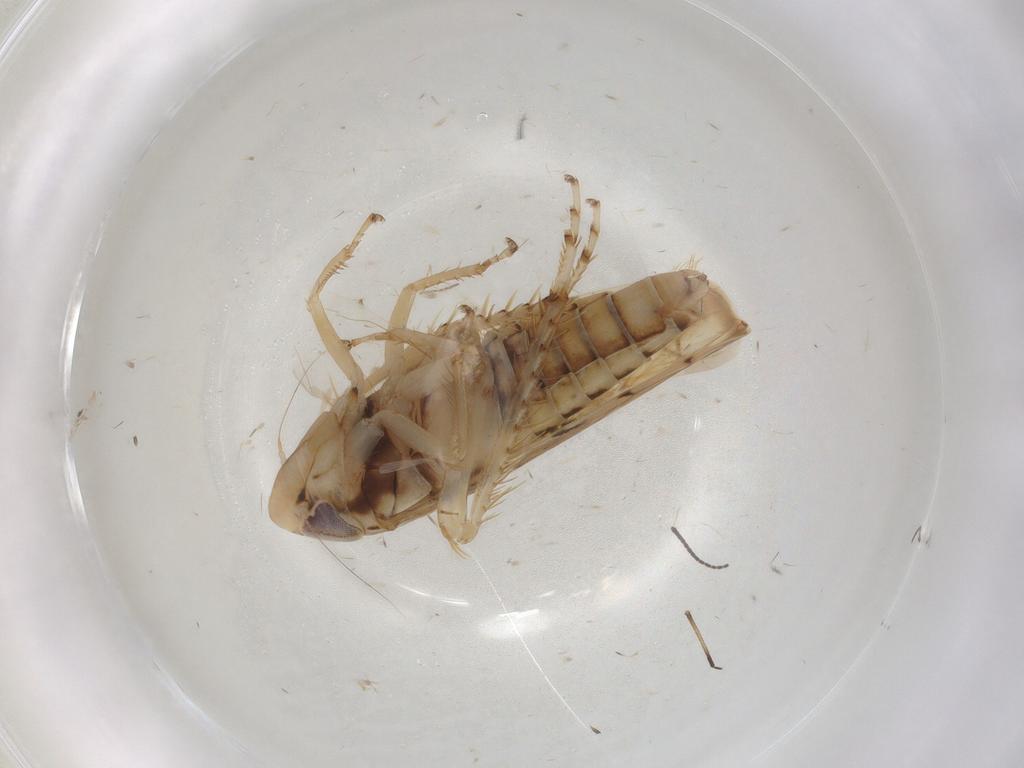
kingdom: Animalia
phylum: Arthropoda
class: Insecta
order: Hemiptera
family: Cicadellidae
